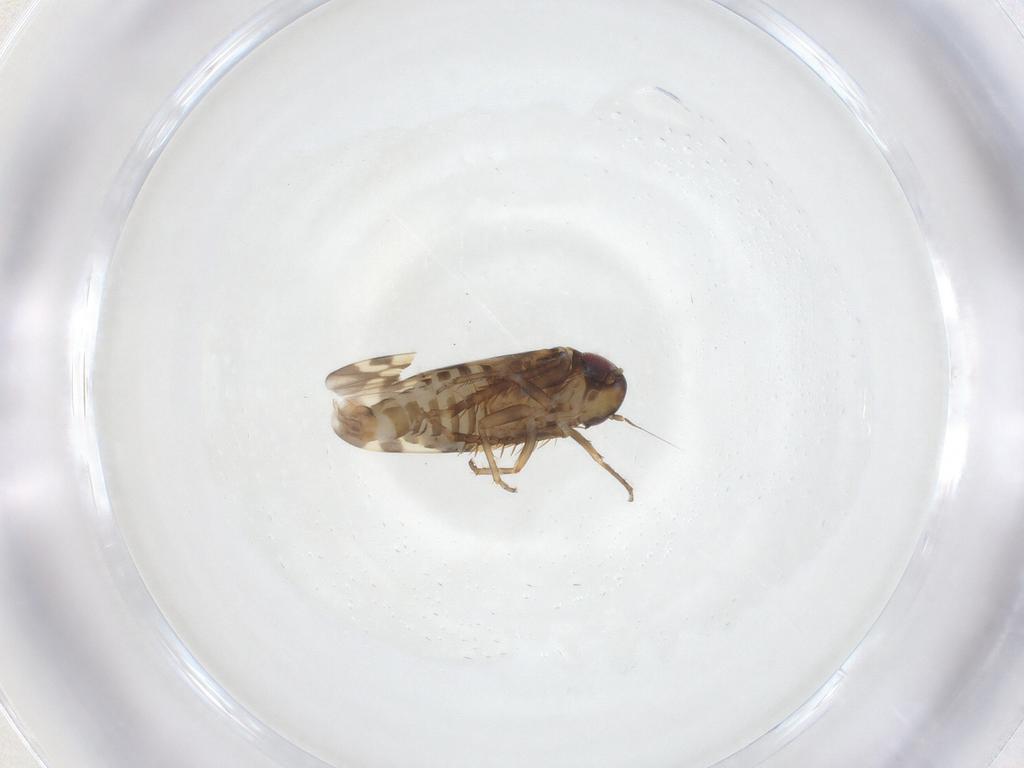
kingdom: Animalia
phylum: Arthropoda
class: Insecta
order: Hemiptera
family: Cicadellidae
